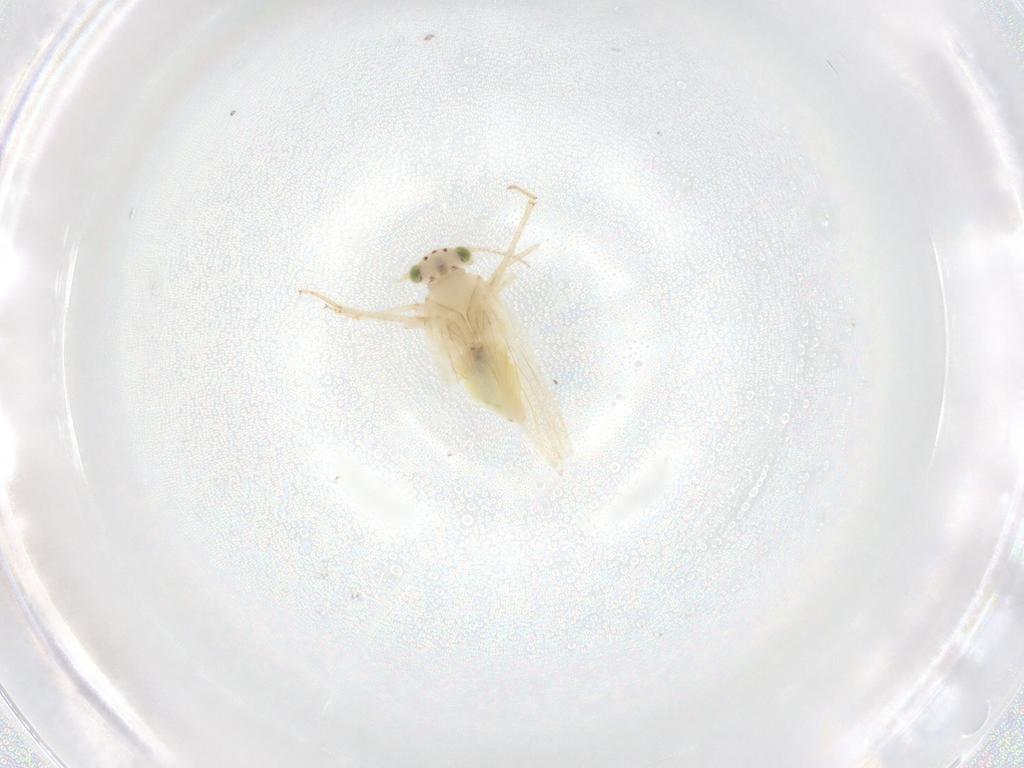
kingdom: Animalia
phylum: Arthropoda
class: Insecta
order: Psocodea
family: Lepidopsocidae
